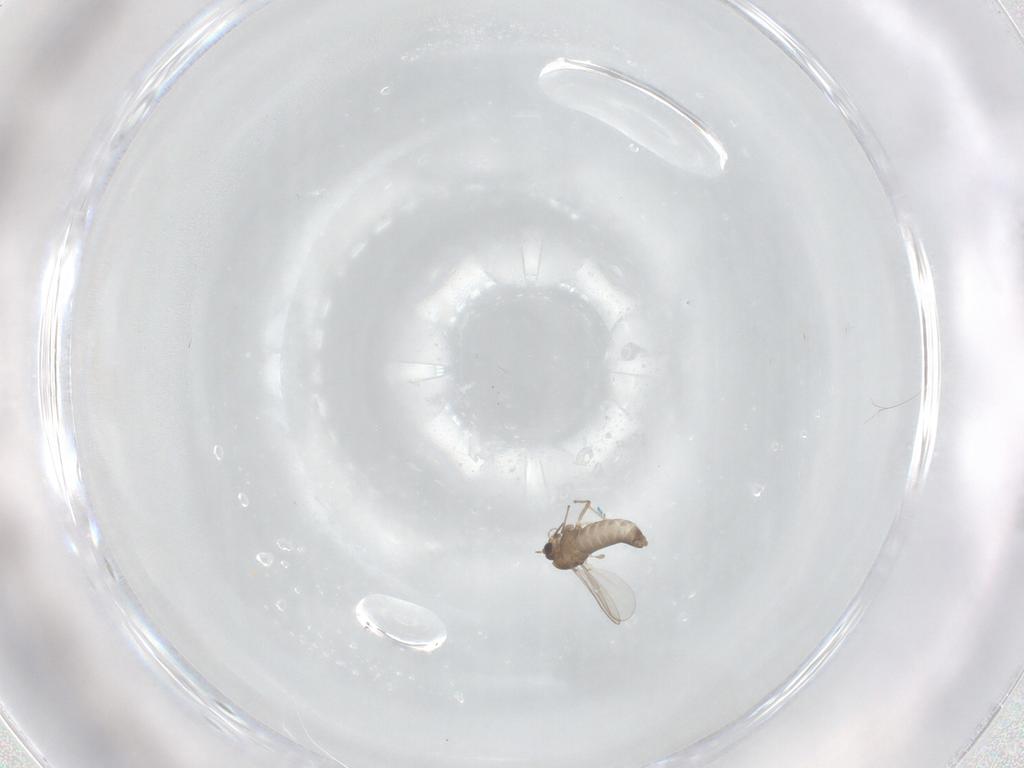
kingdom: Animalia
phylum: Arthropoda
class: Insecta
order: Diptera
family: Chironomidae
